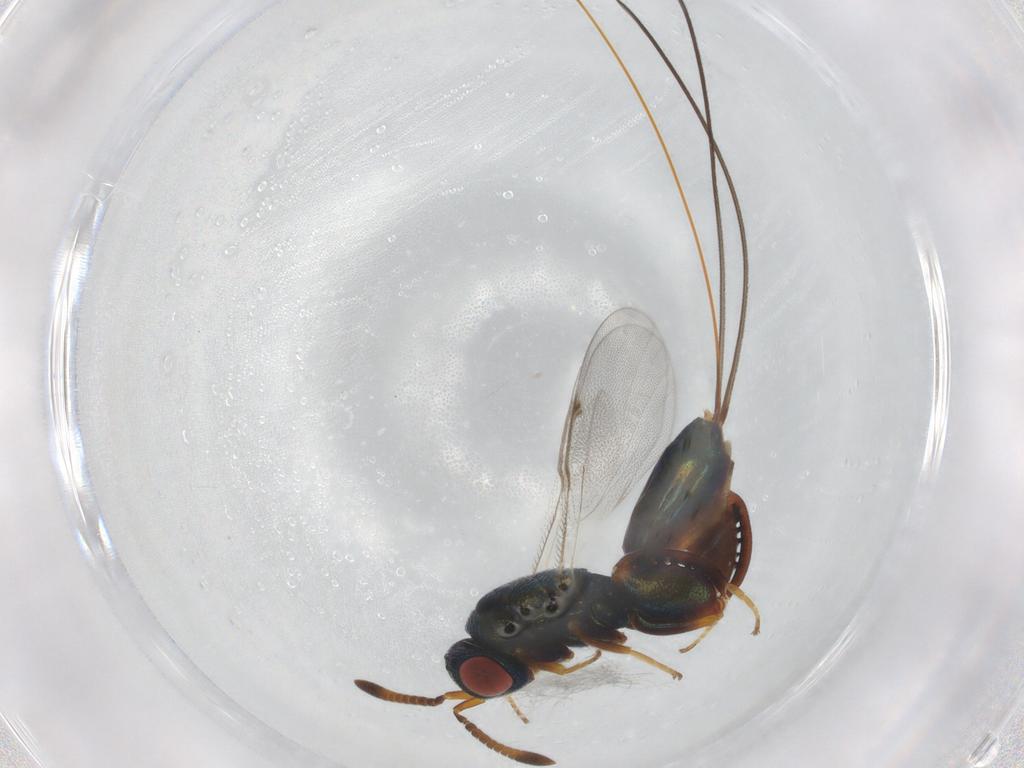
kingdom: Animalia
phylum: Arthropoda
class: Insecta
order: Hymenoptera
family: Torymidae
